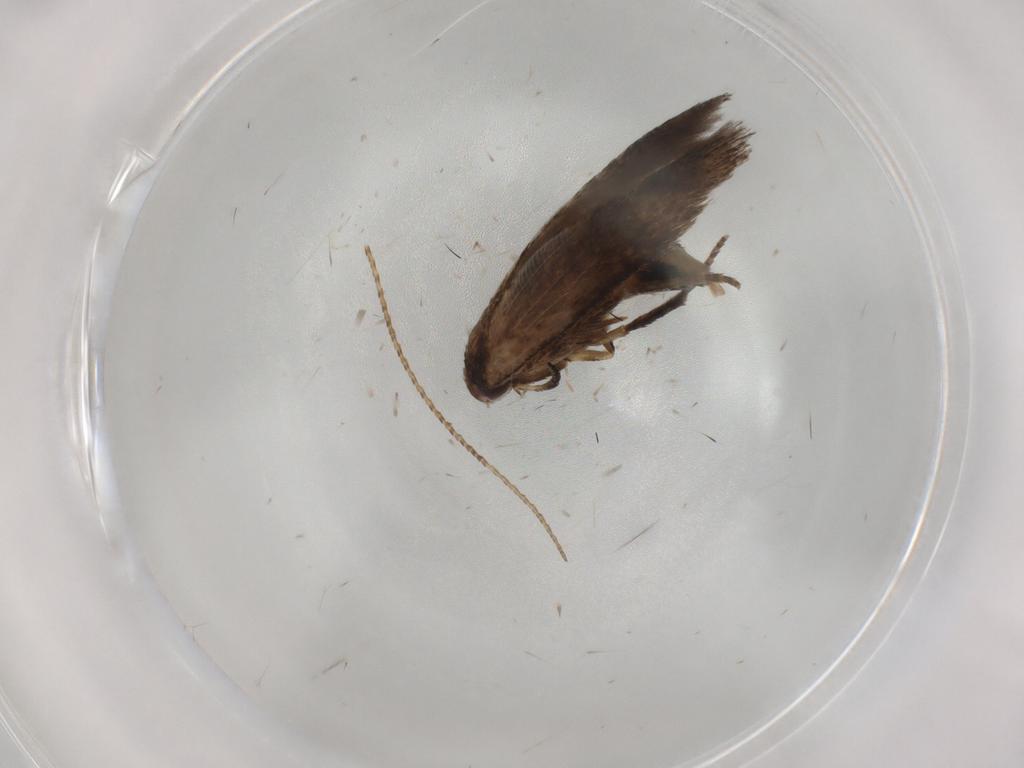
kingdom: Animalia
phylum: Arthropoda
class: Insecta
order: Lepidoptera
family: Cosmopterigidae
